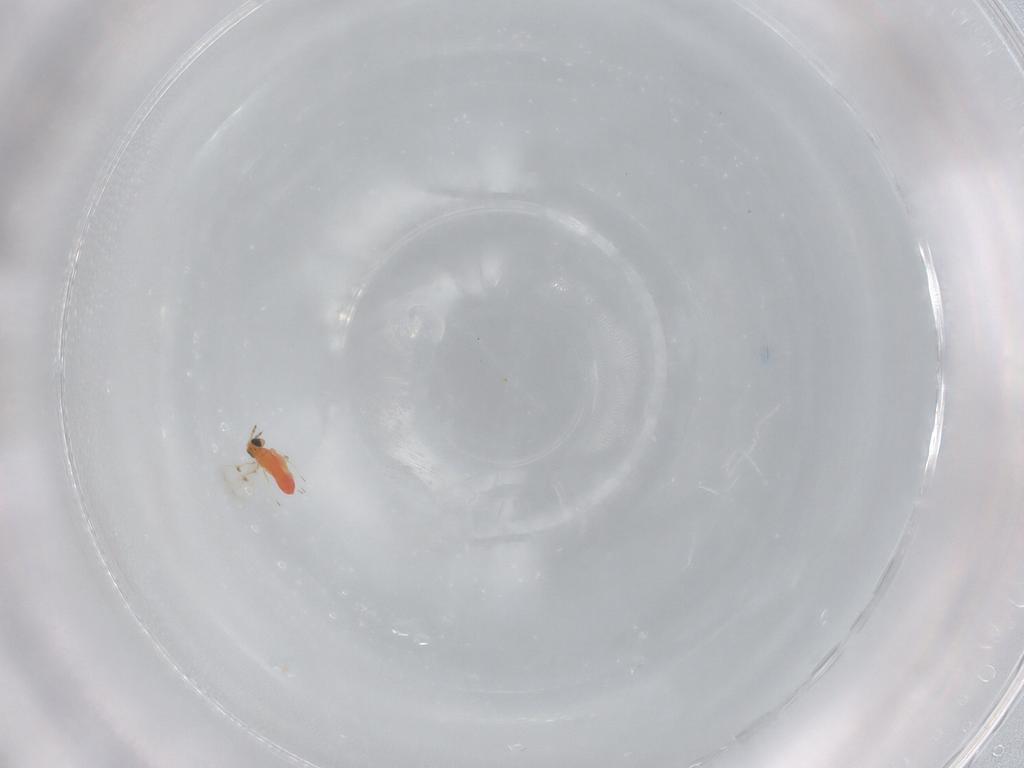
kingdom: Animalia
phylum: Arthropoda
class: Insecta
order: Hymenoptera
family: Trichogrammatidae
